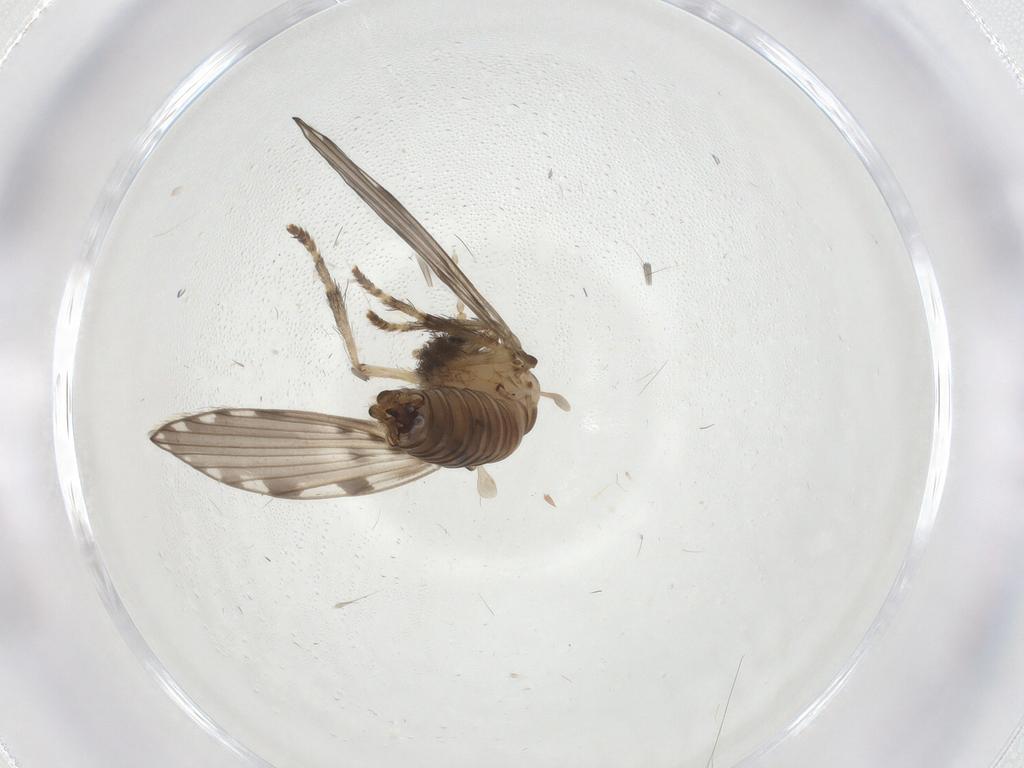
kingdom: Animalia
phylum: Arthropoda
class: Insecta
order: Diptera
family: Psychodidae
